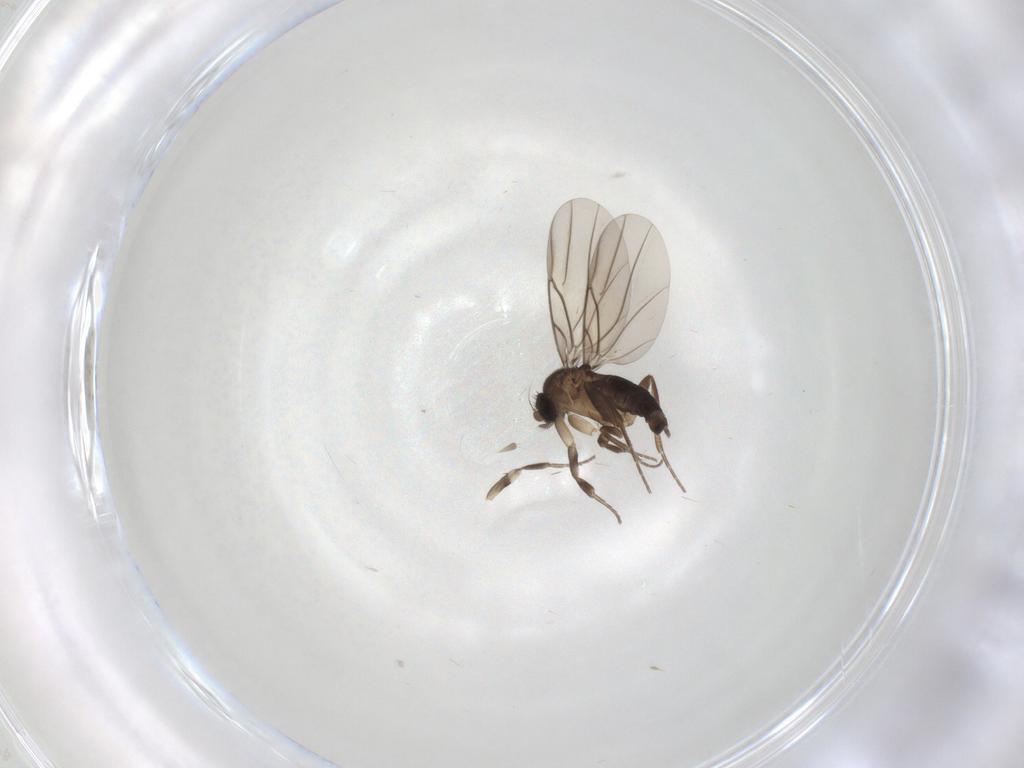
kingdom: Animalia
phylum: Arthropoda
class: Insecta
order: Diptera
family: Phoridae
